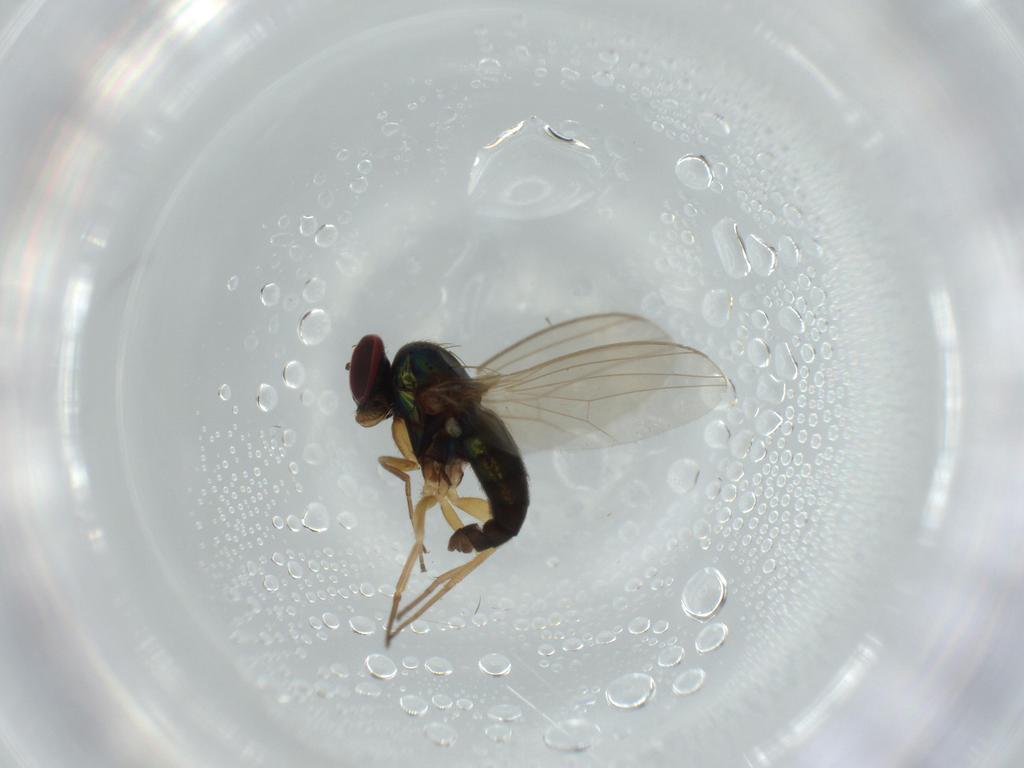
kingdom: Animalia
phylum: Arthropoda
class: Insecta
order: Diptera
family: Dolichopodidae
